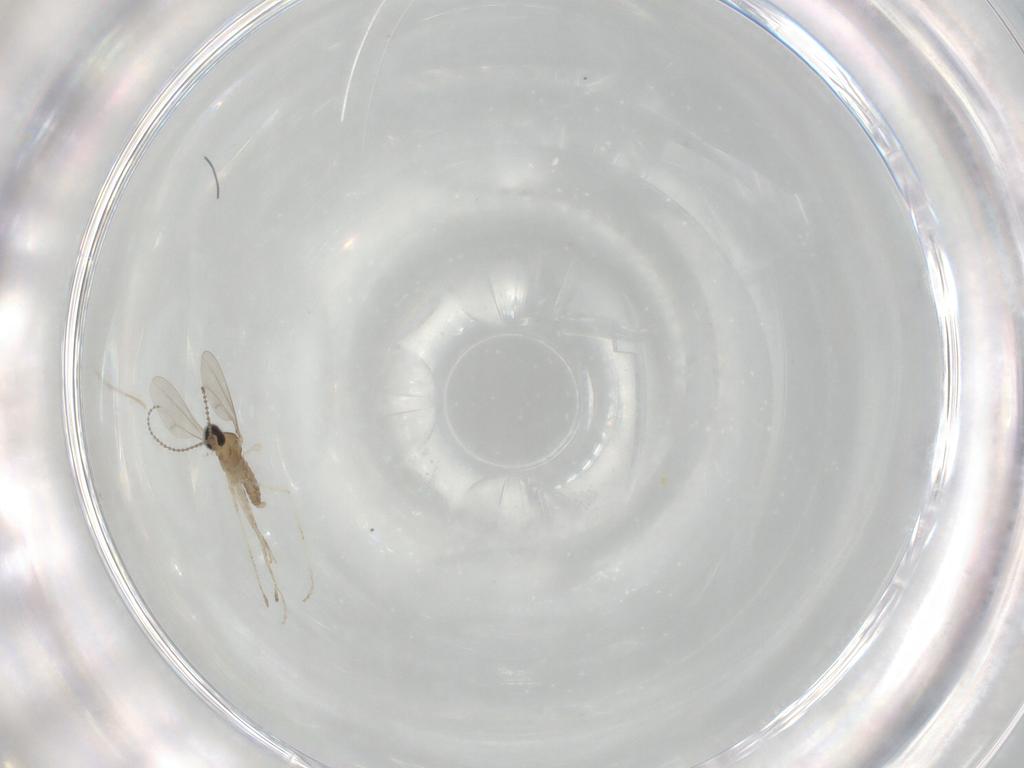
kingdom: Animalia
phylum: Arthropoda
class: Insecta
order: Diptera
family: Cecidomyiidae
